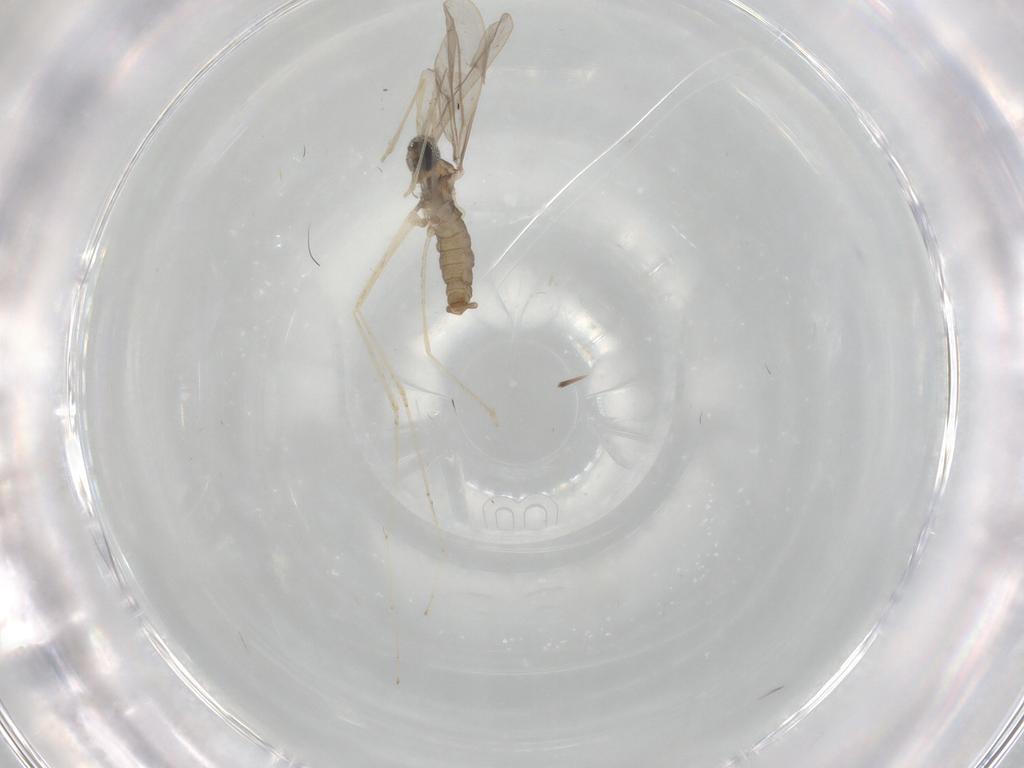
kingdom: Animalia
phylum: Arthropoda
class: Insecta
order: Diptera
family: Cecidomyiidae
